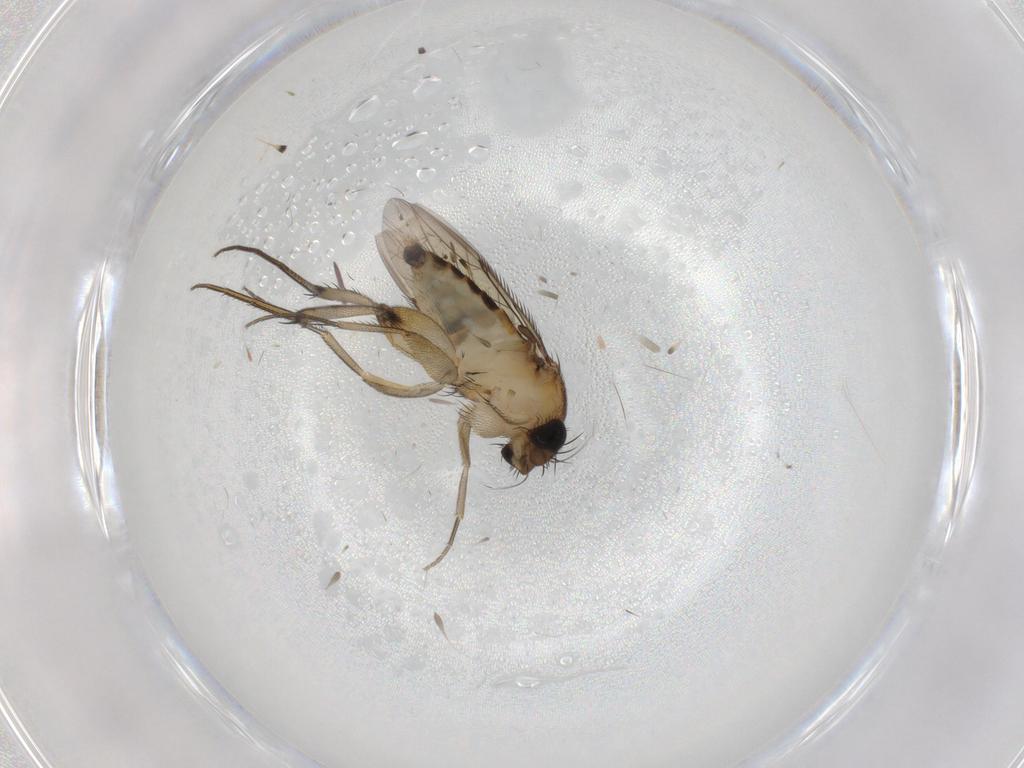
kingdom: Animalia
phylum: Arthropoda
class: Insecta
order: Diptera
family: Phoridae
